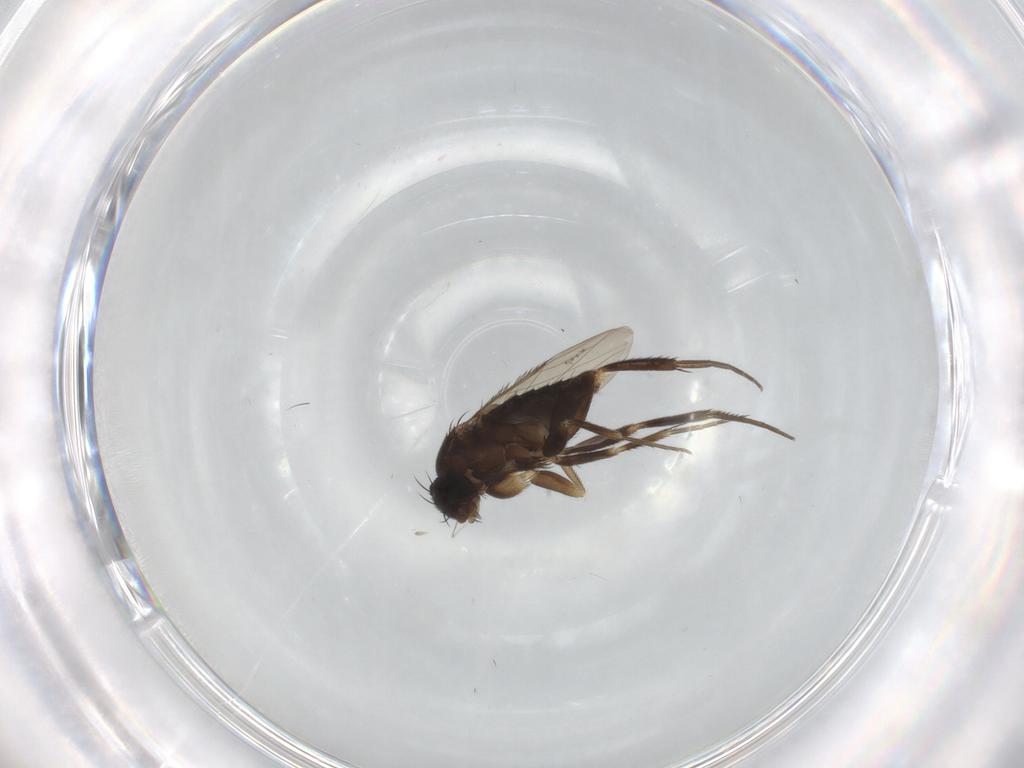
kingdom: Animalia
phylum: Arthropoda
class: Insecta
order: Diptera
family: Phoridae
